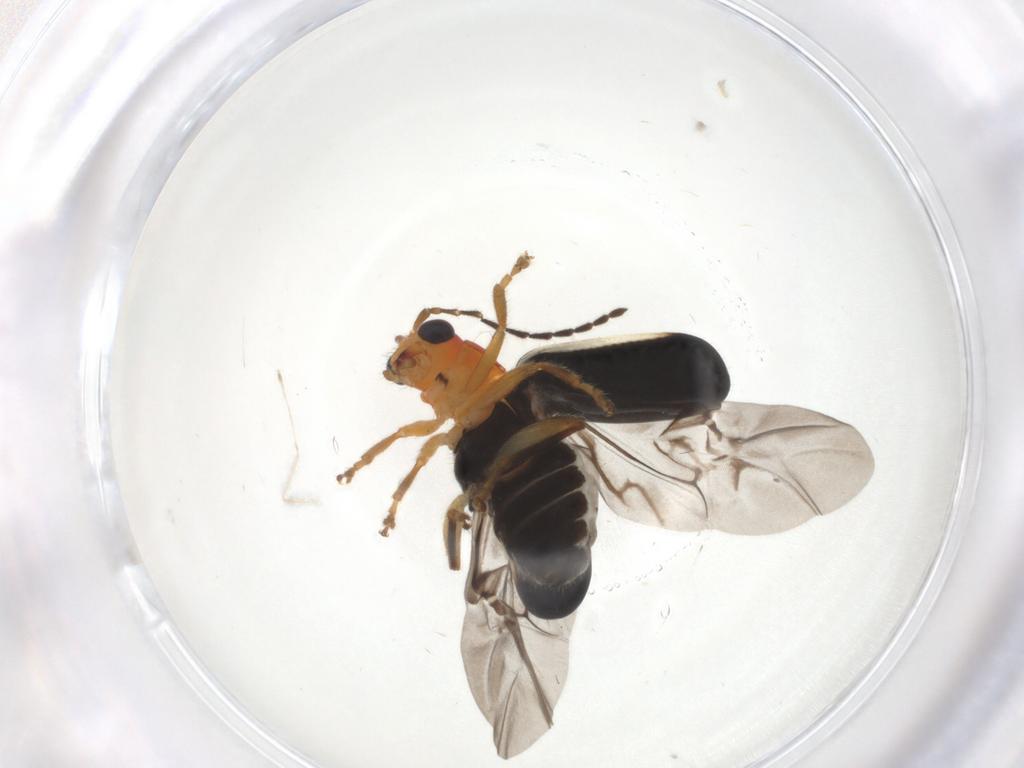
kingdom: Animalia
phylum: Arthropoda
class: Insecta
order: Coleoptera
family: Chrysomelidae
